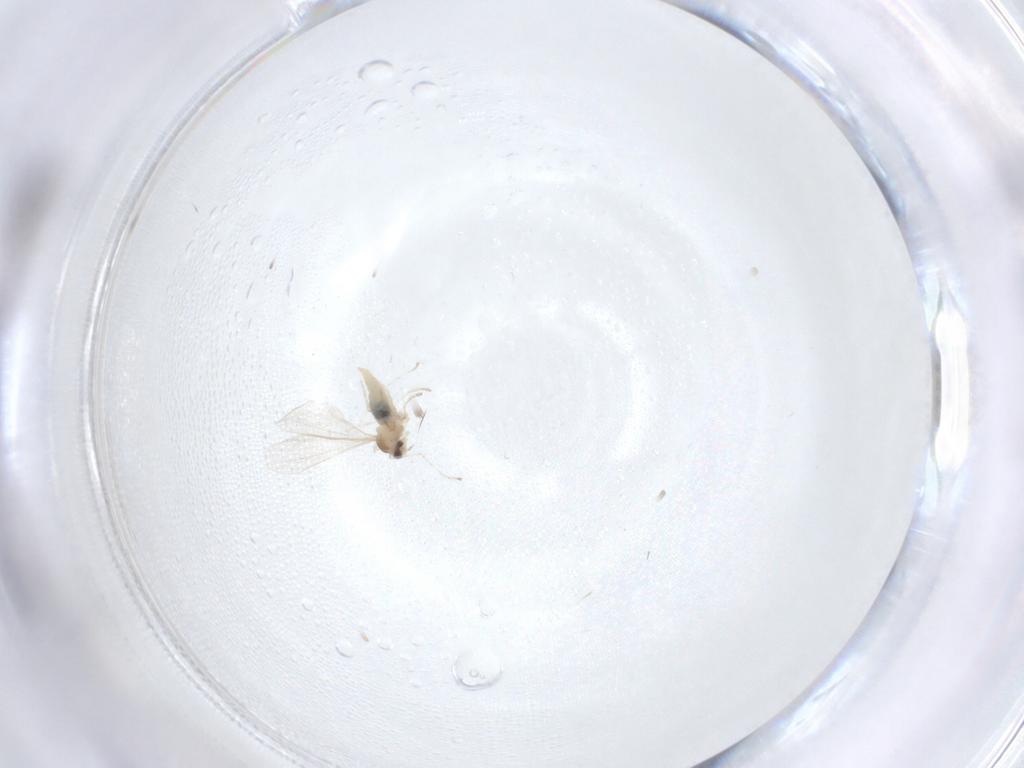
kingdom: Animalia
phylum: Arthropoda
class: Insecta
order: Diptera
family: Cecidomyiidae
